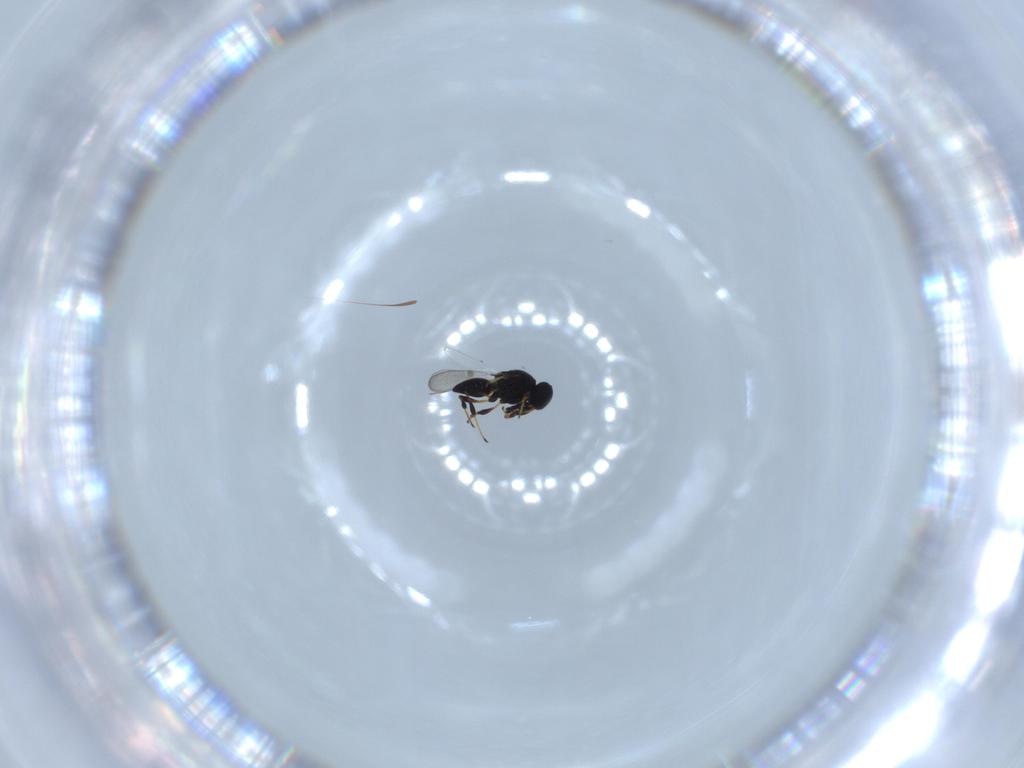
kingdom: Animalia
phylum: Arthropoda
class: Insecta
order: Hymenoptera
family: Platygastridae
